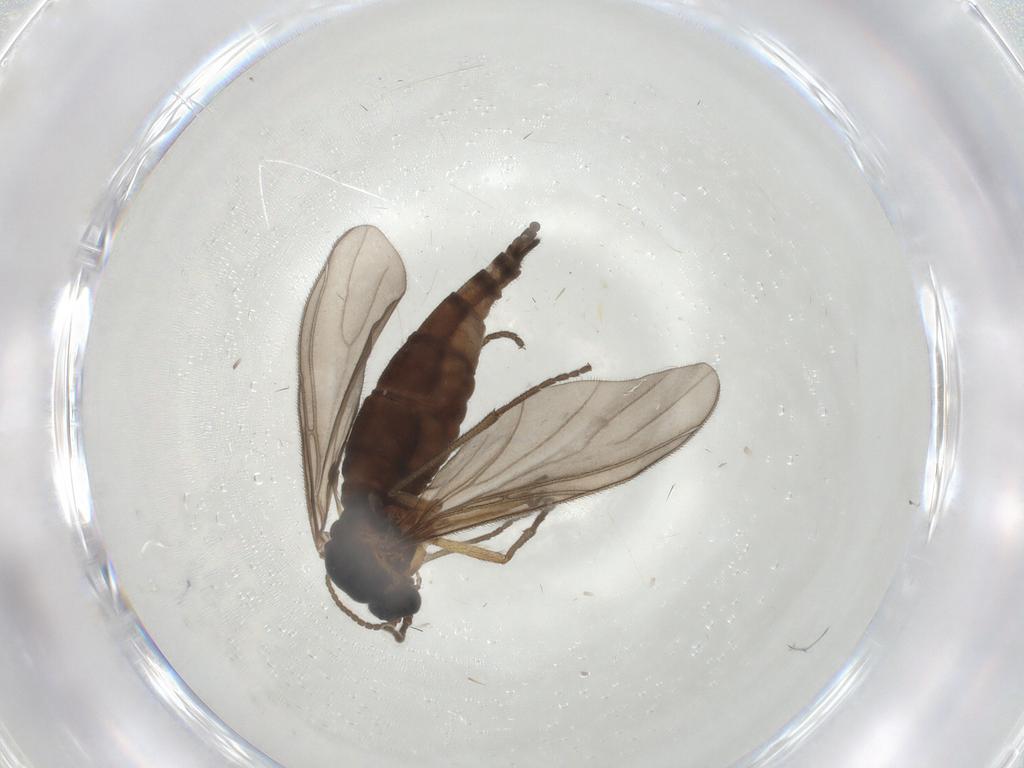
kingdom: Animalia
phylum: Arthropoda
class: Insecta
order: Diptera
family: Sciaridae
